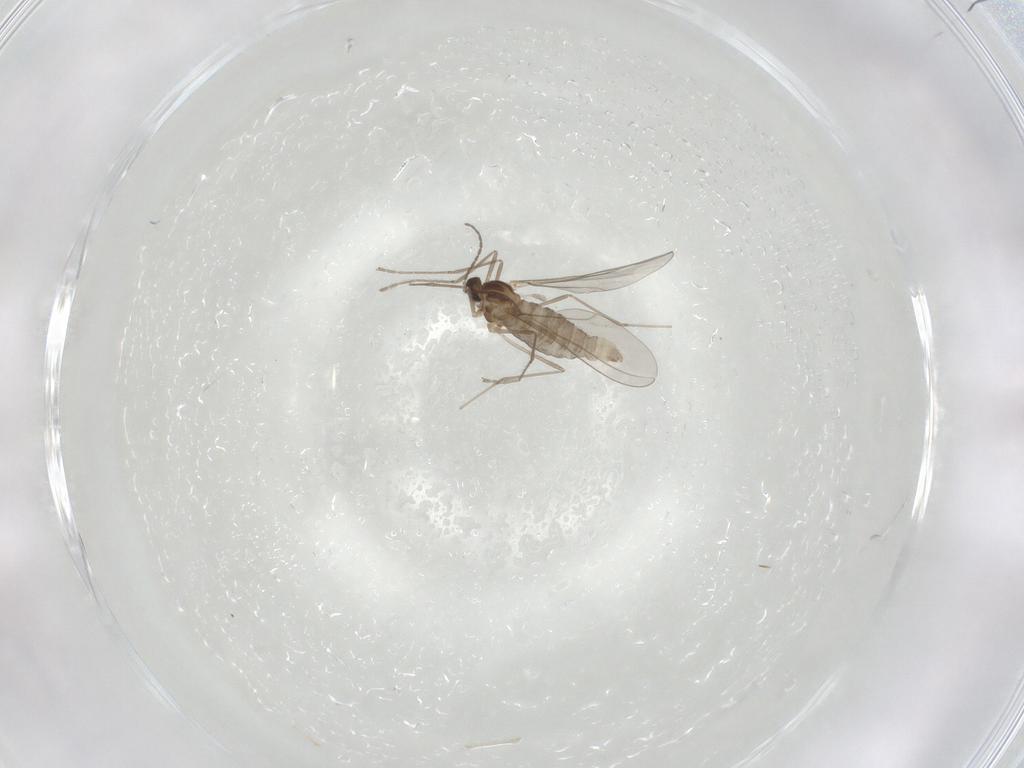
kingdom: Animalia
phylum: Arthropoda
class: Insecta
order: Diptera
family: Cecidomyiidae
